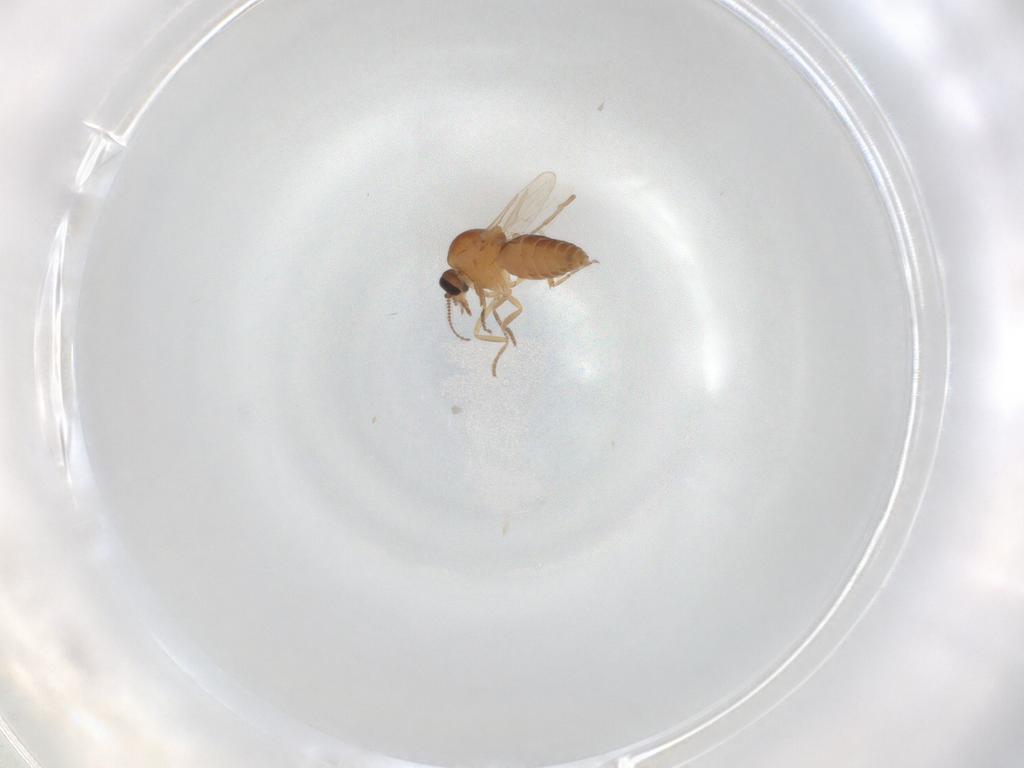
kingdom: Animalia
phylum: Arthropoda
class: Insecta
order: Diptera
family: Ceratopogonidae
